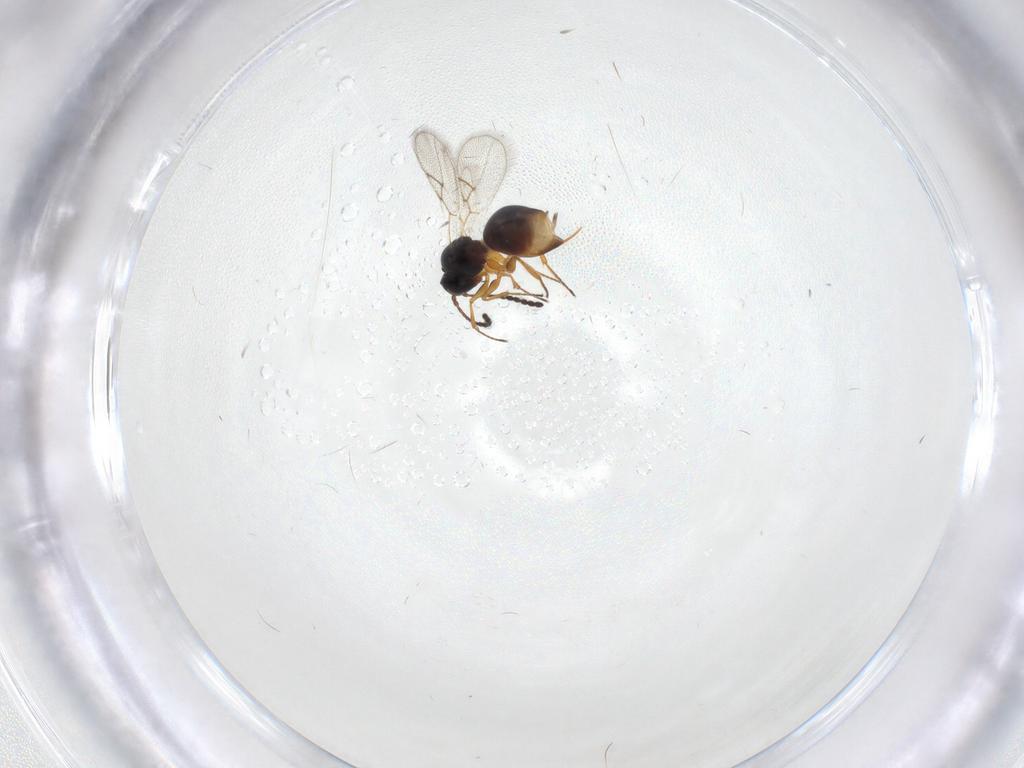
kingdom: Animalia
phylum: Arthropoda
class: Insecta
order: Hymenoptera
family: Figitidae
